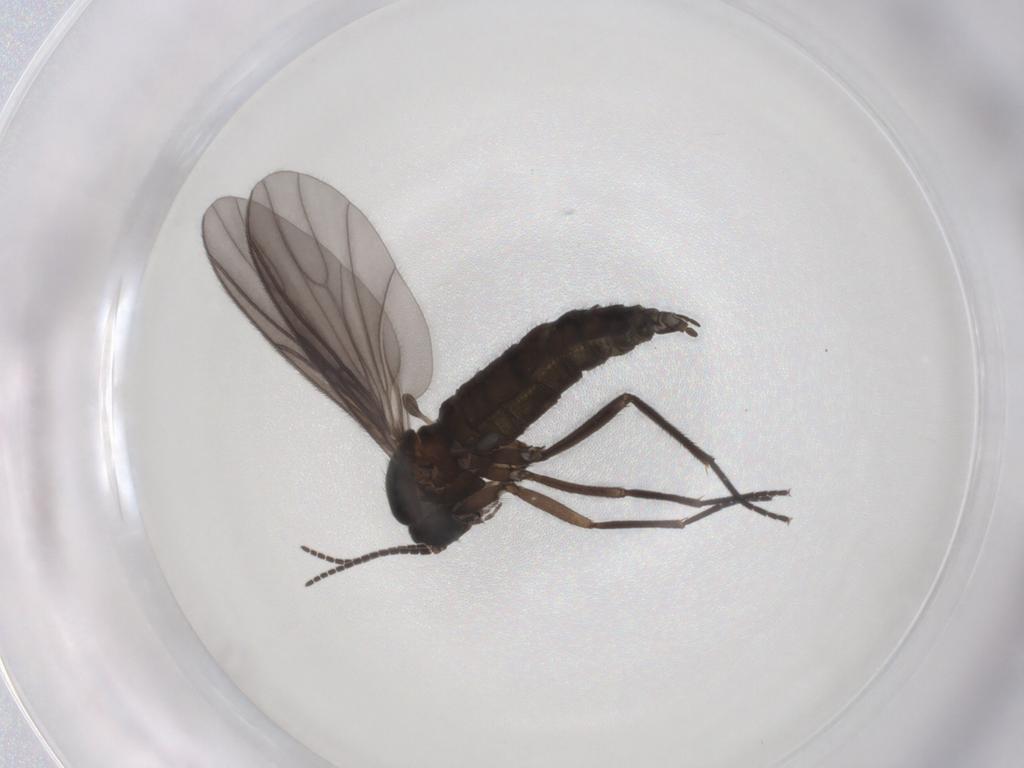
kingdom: Animalia
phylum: Arthropoda
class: Insecta
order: Diptera
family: Sciaridae
